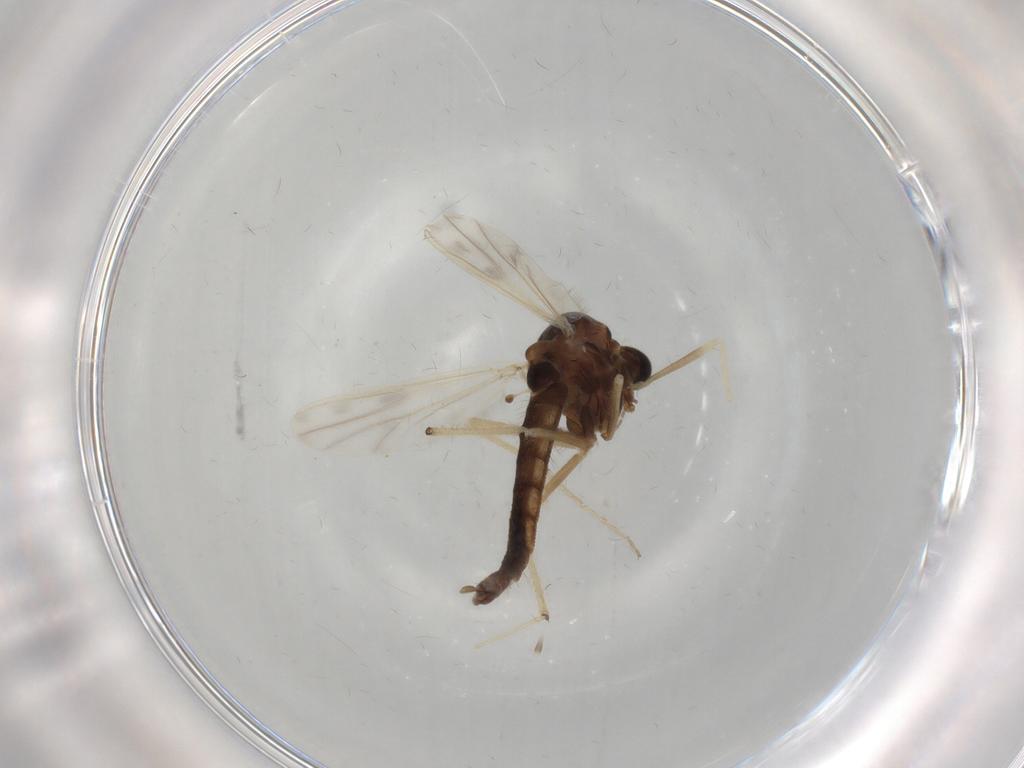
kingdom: Animalia
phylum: Arthropoda
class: Insecta
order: Diptera
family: Chironomidae
